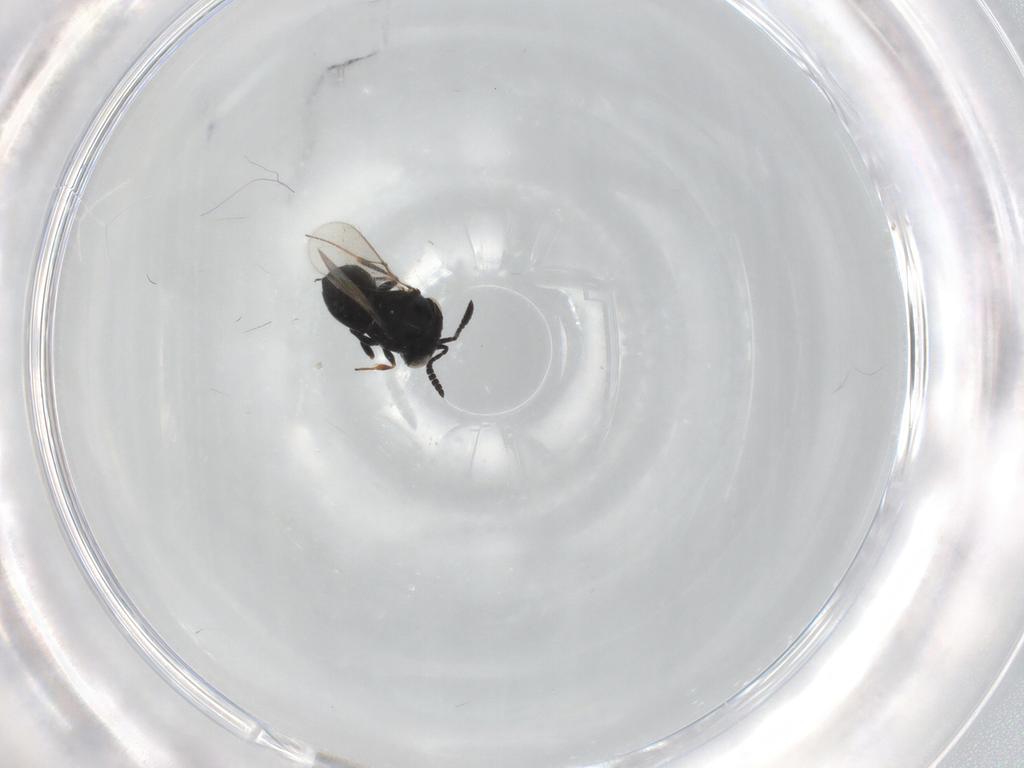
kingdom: Animalia
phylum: Arthropoda
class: Insecta
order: Hymenoptera
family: Scelionidae
